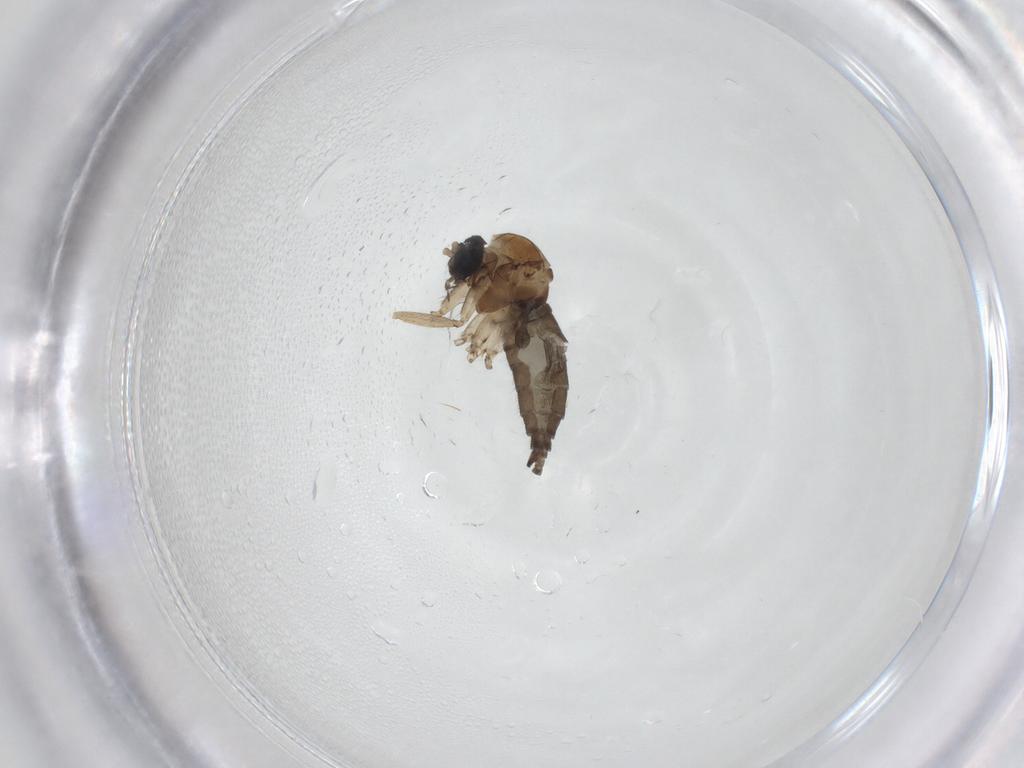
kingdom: Animalia
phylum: Arthropoda
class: Insecta
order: Diptera
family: Sciaridae
